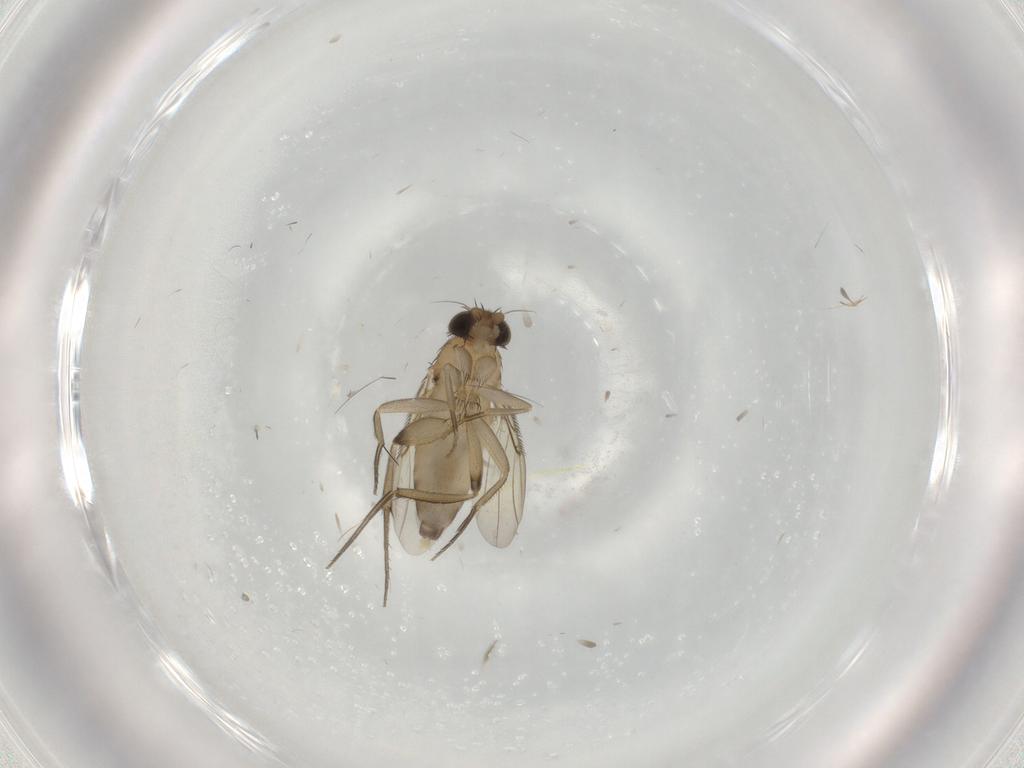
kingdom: Animalia
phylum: Arthropoda
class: Insecta
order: Diptera
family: Phoridae
